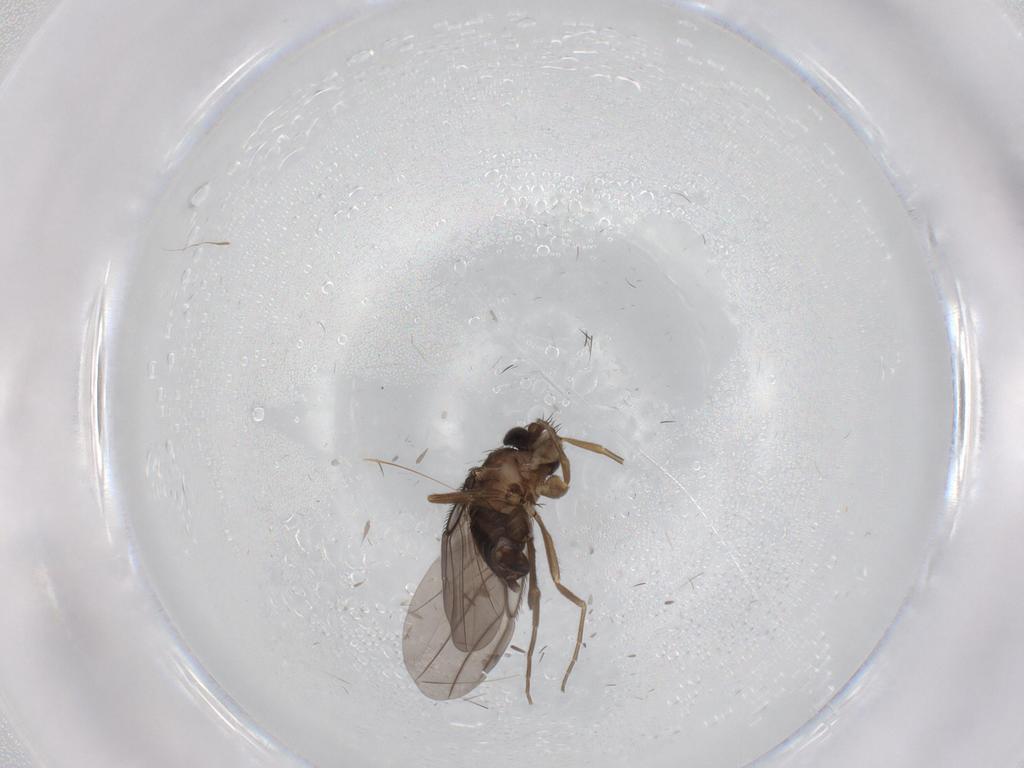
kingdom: Animalia
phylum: Arthropoda
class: Insecta
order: Diptera
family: Phoridae
